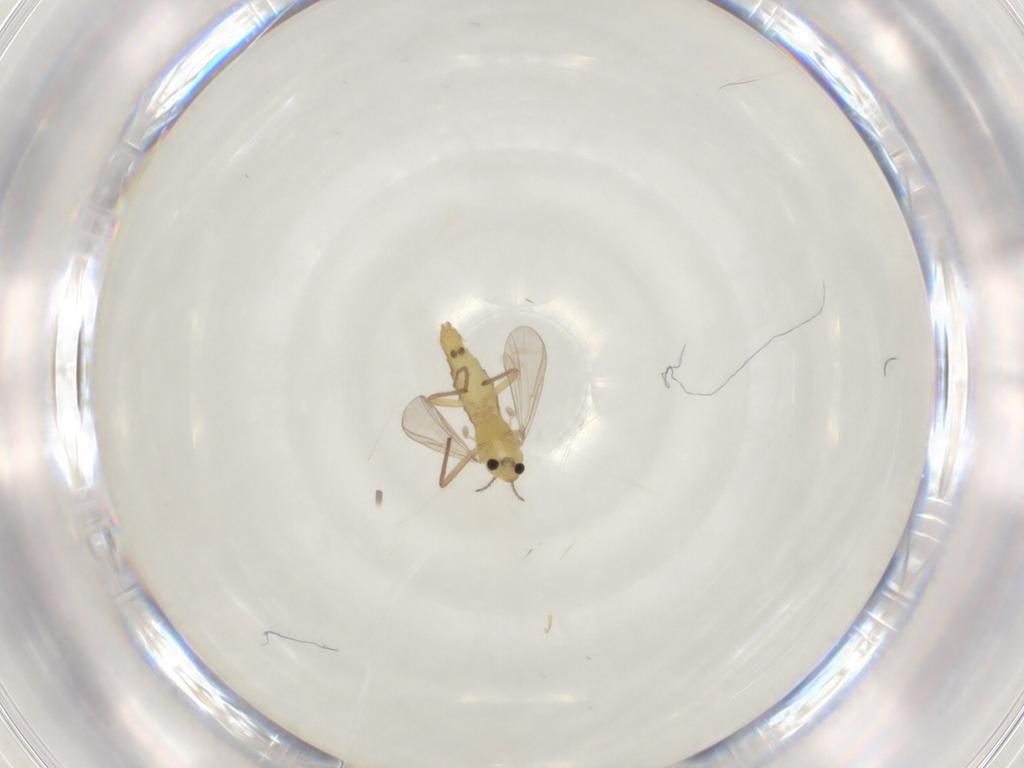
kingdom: Animalia
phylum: Arthropoda
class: Insecta
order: Diptera
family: Chironomidae
